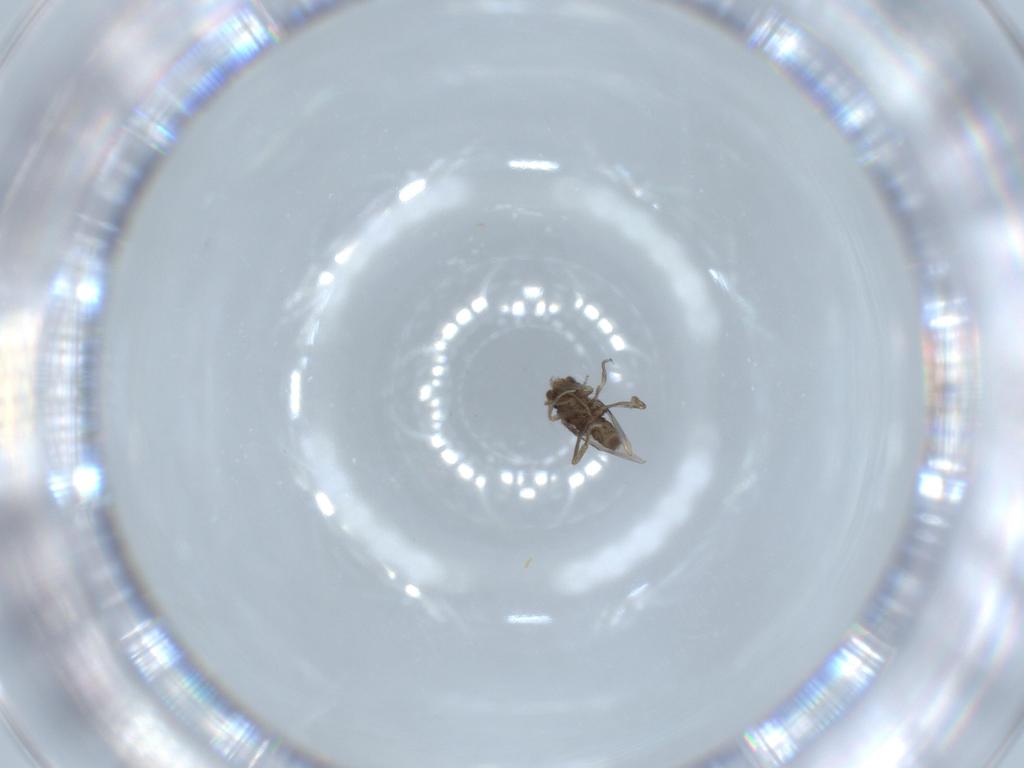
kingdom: Animalia
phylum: Arthropoda
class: Insecta
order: Diptera
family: Phoridae
